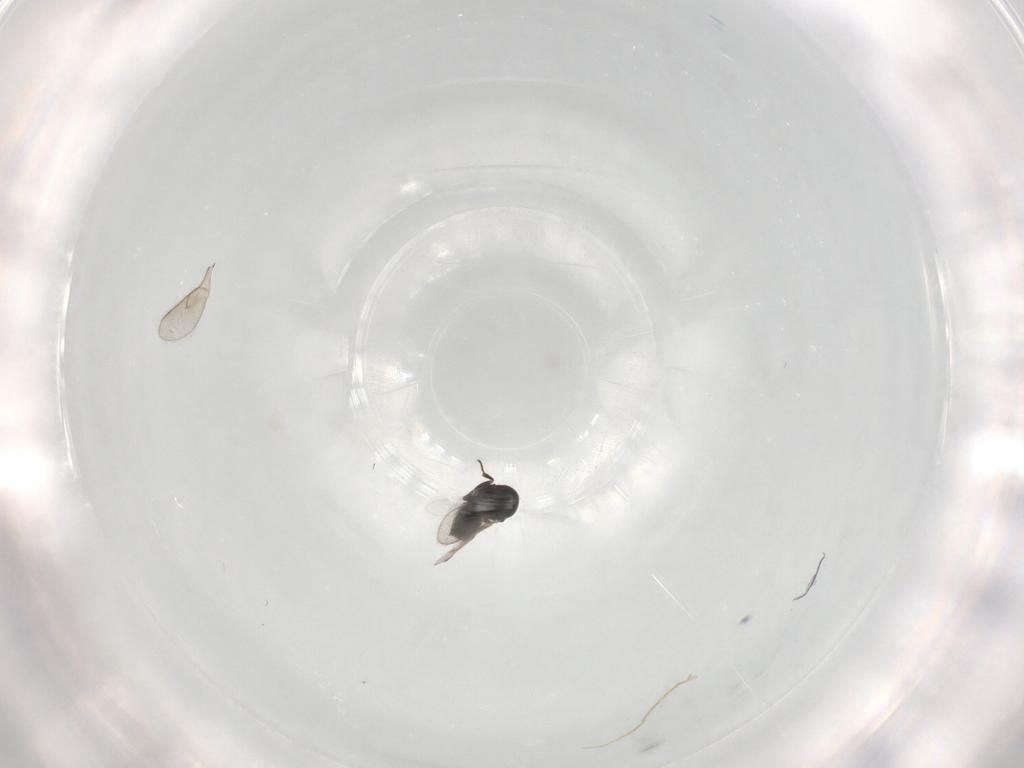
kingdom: Animalia
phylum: Arthropoda
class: Insecta
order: Hymenoptera
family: Scelionidae
